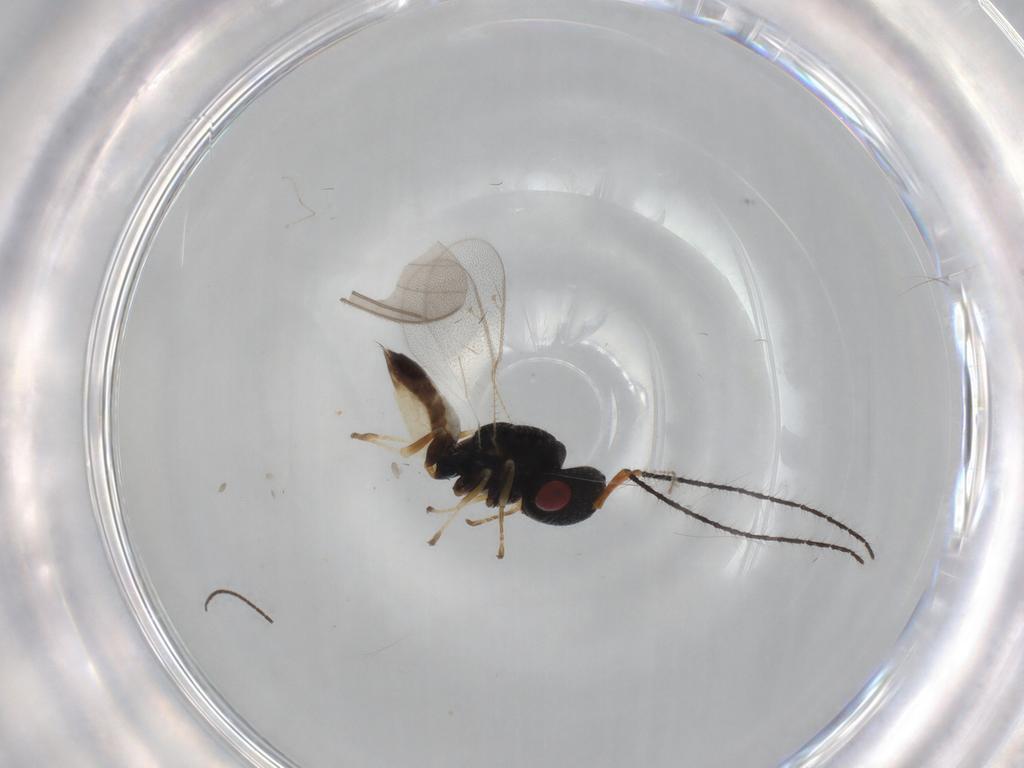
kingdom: Animalia
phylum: Arthropoda
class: Insecta
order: Hymenoptera
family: Pteromalidae
